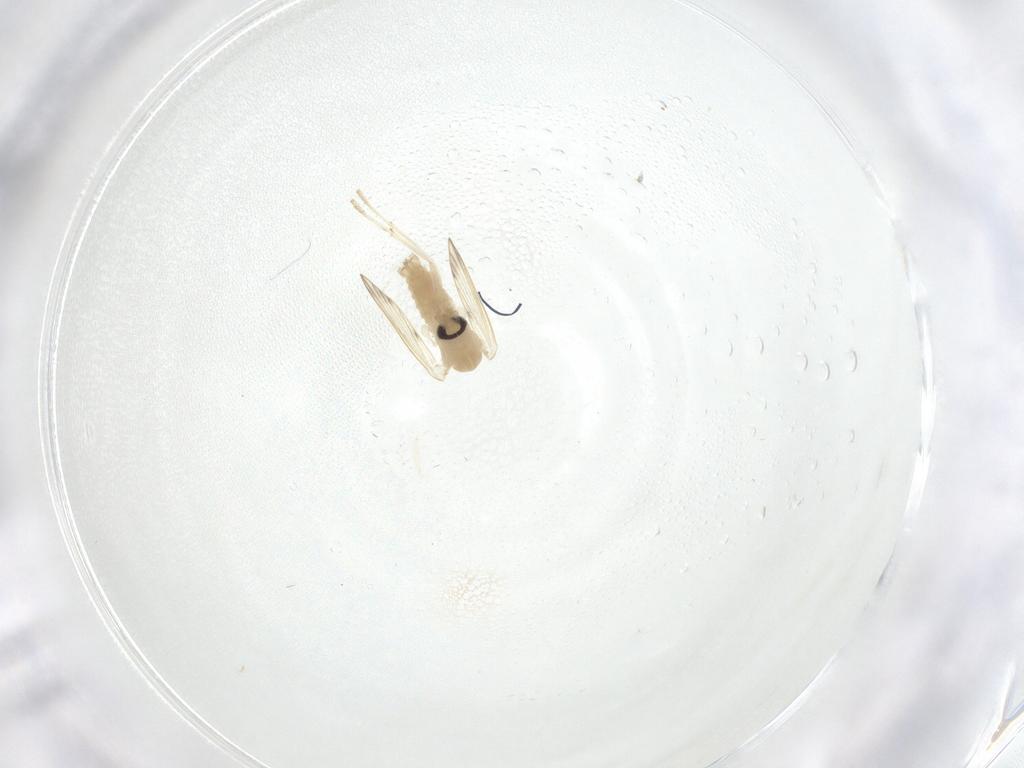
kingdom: Animalia
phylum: Arthropoda
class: Insecta
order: Diptera
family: Psychodidae
